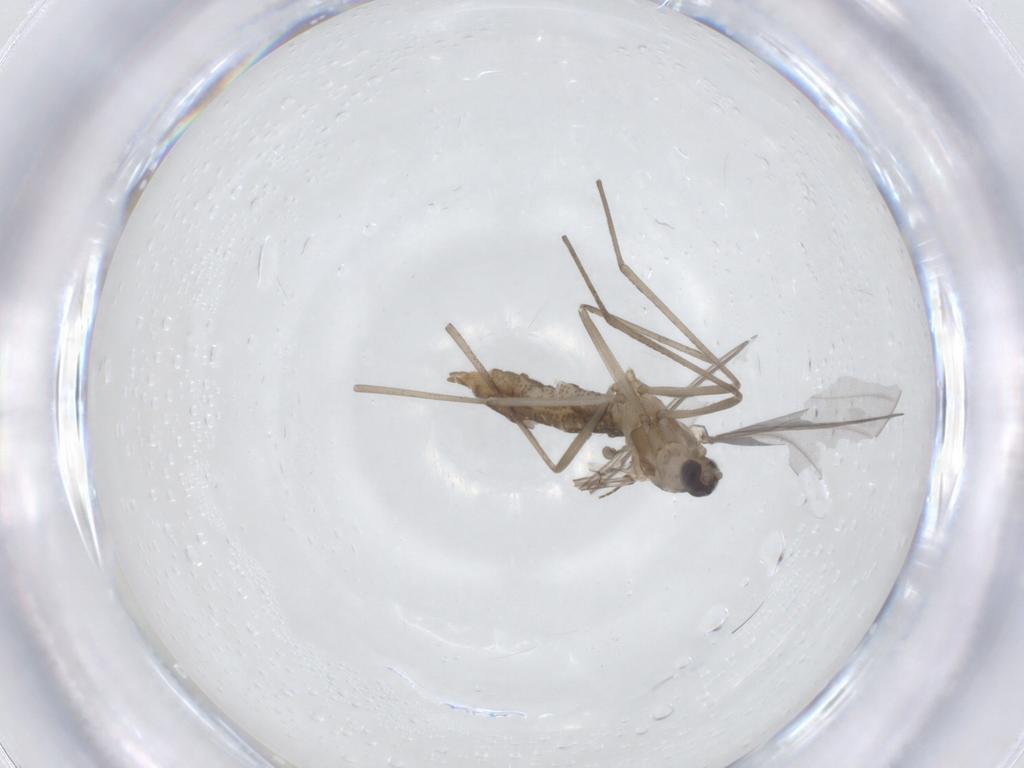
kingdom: Animalia
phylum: Arthropoda
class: Insecta
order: Diptera
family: Cecidomyiidae
